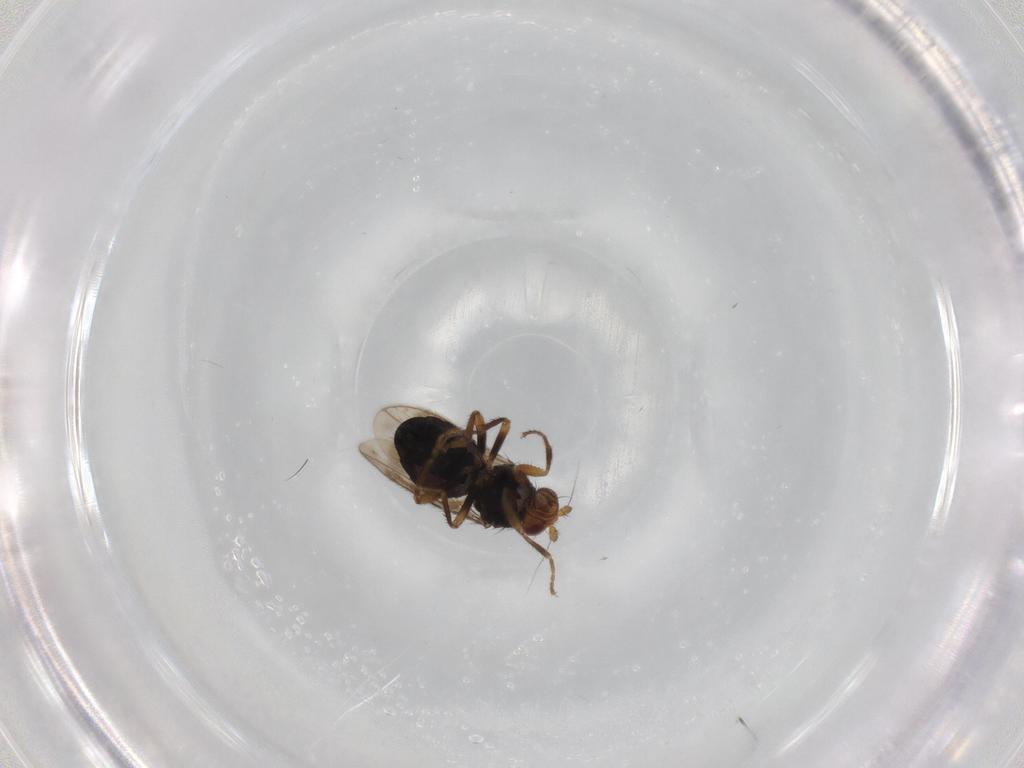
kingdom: Animalia
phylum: Arthropoda
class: Insecta
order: Diptera
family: Sphaeroceridae
